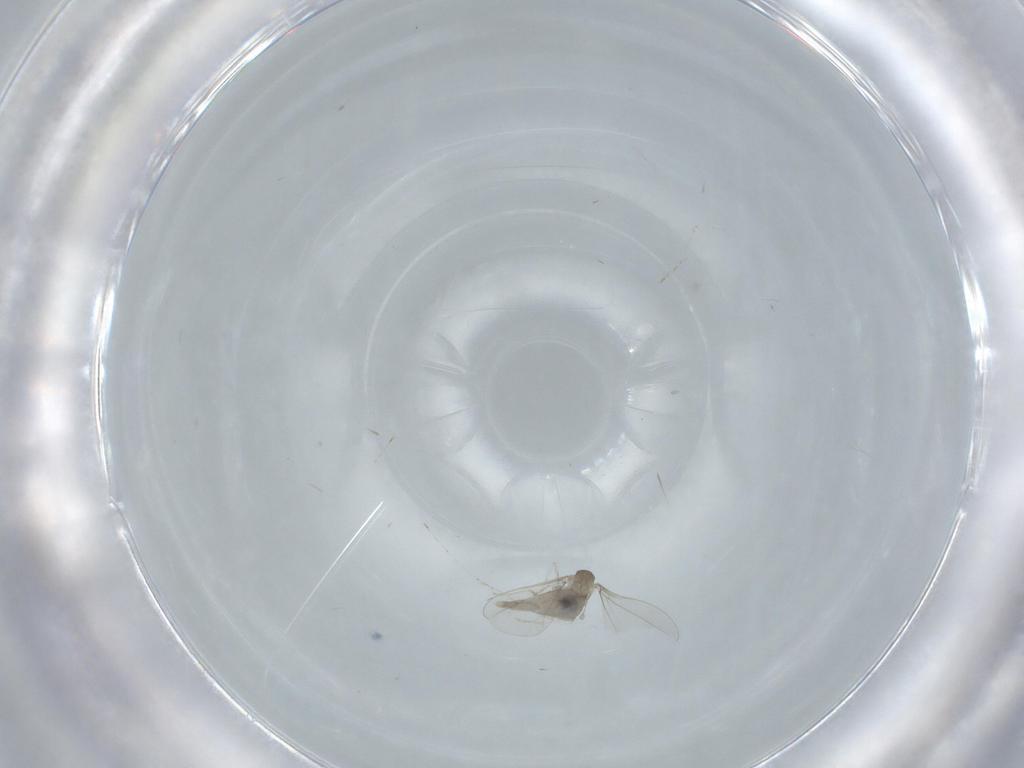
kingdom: Animalia
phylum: Arthropoda
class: Insecta
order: Diptera
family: Cecidomyiidae
